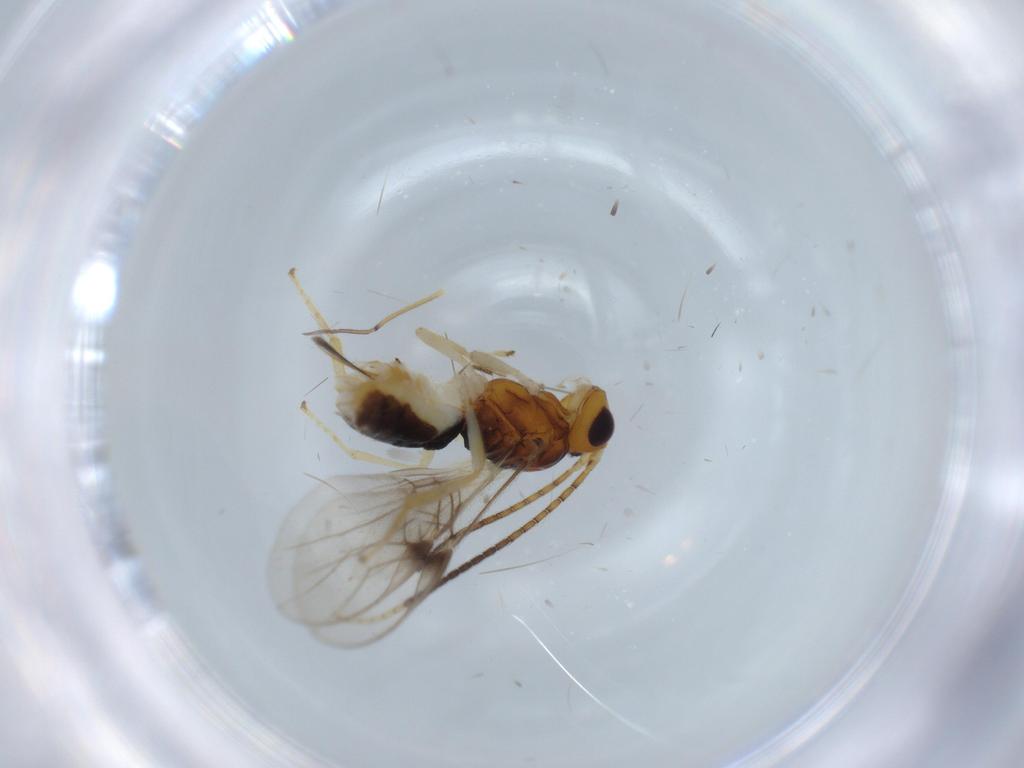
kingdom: Animalia
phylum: Arthropoda
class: Insecta
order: Hymenoptera
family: Braconidae
